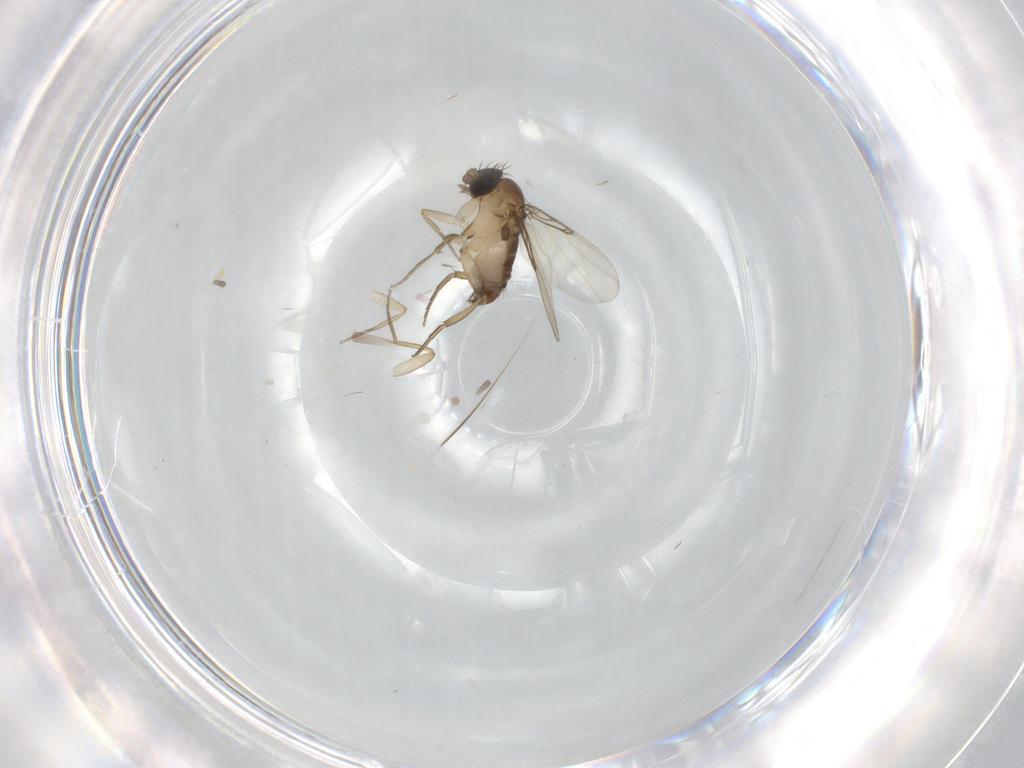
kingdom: Animalia
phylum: Arthropoda
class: Insecta
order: Diptera
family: Phoridae
